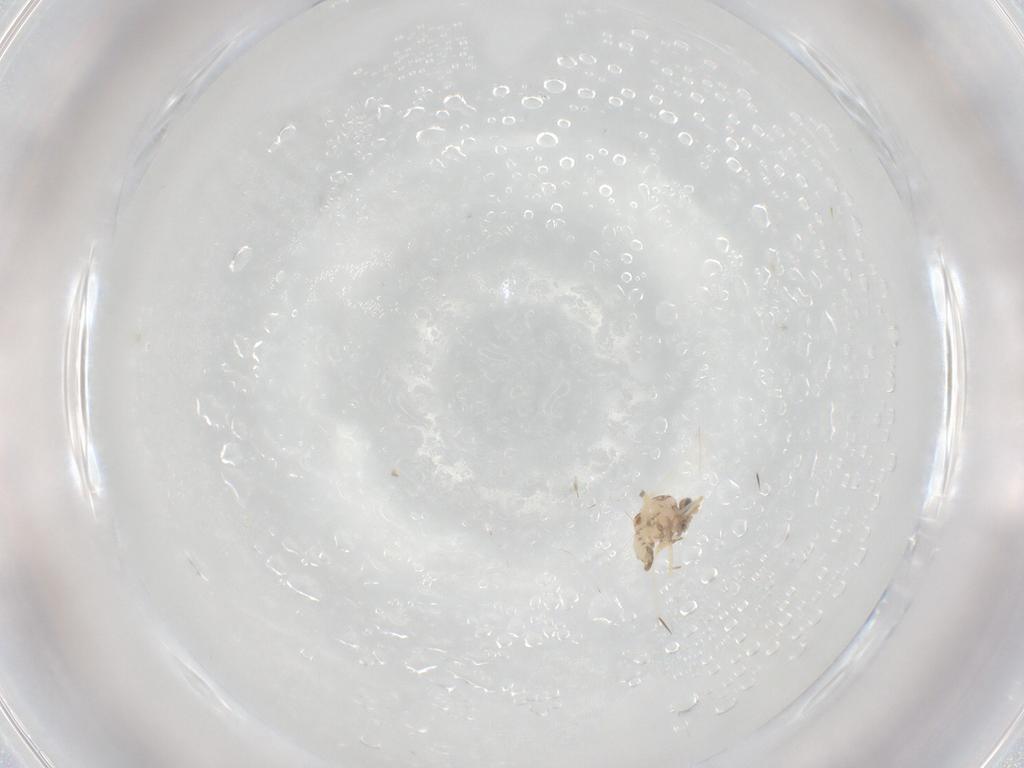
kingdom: Animalia
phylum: Arthropoda
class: Insecta
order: Diptera
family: Ceratopogonidae
